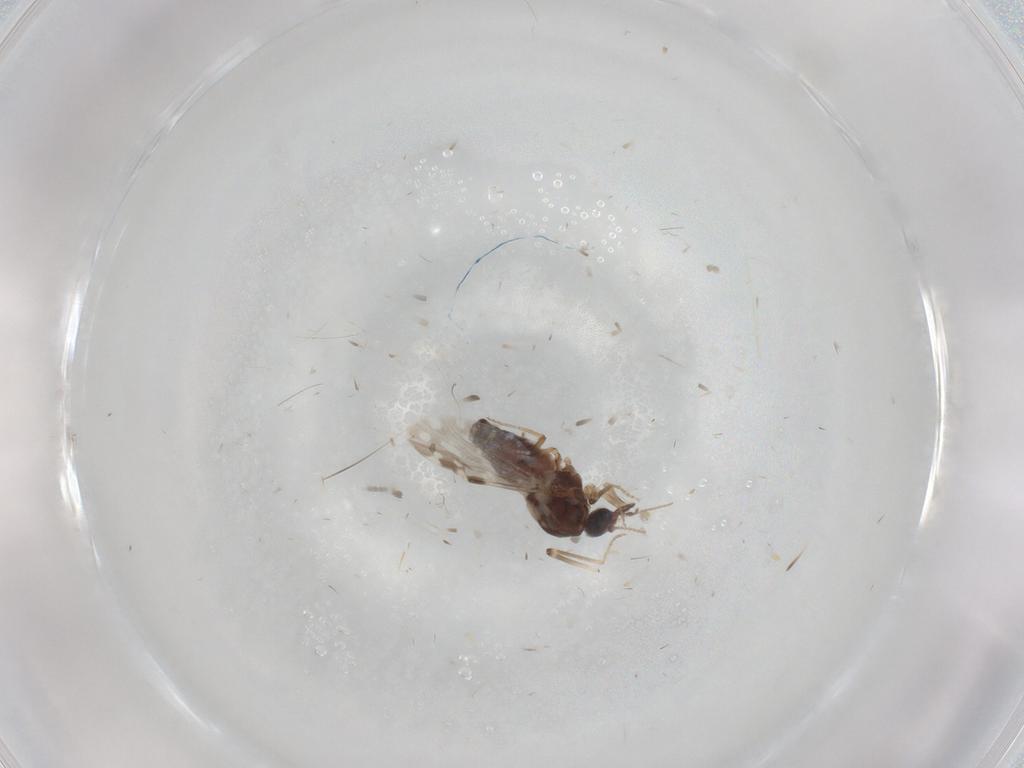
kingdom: Animalia
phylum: Arthropoda
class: Insecta
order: Diptera
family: Ceratopogonidae
